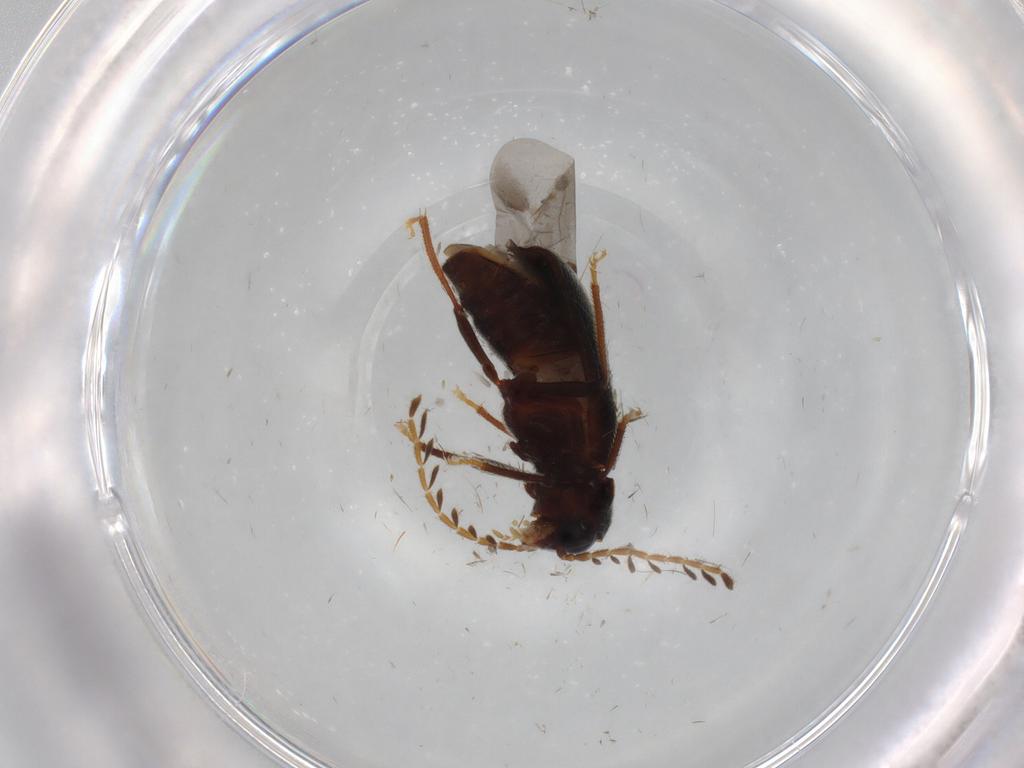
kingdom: Animalia
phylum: Arthropoda
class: Insecta
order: Coleoptera
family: Ptilodactylidae
